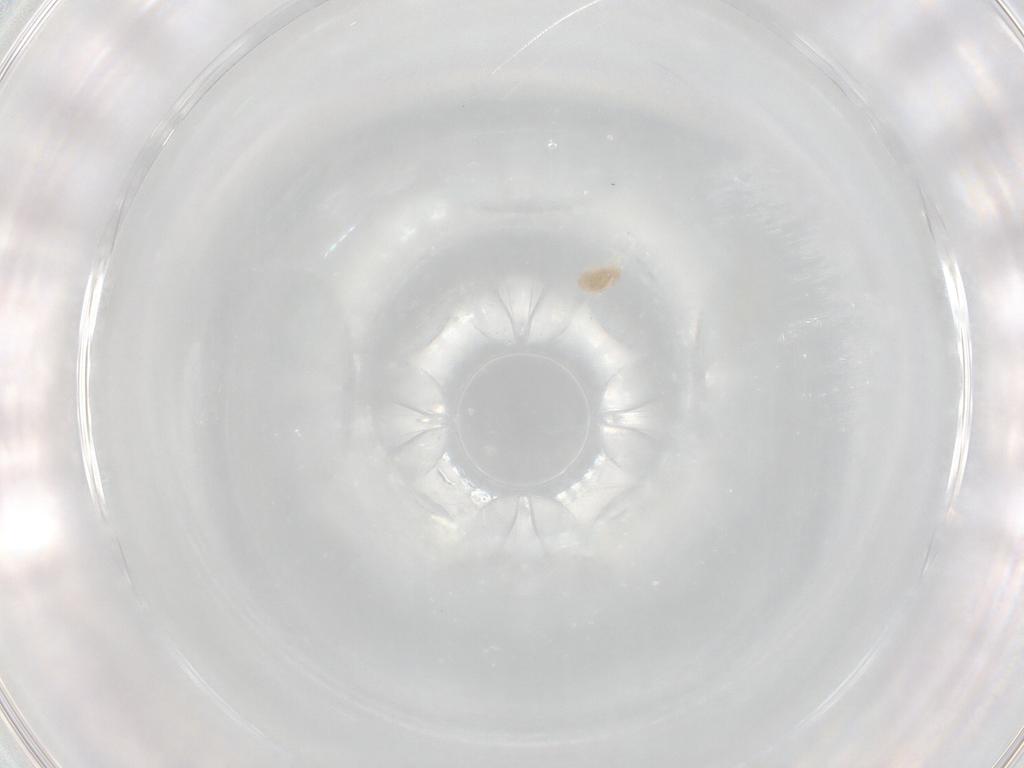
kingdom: Animalia
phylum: Arthropoda
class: Arachnida
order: Trombidiformes
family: Eupodidae
